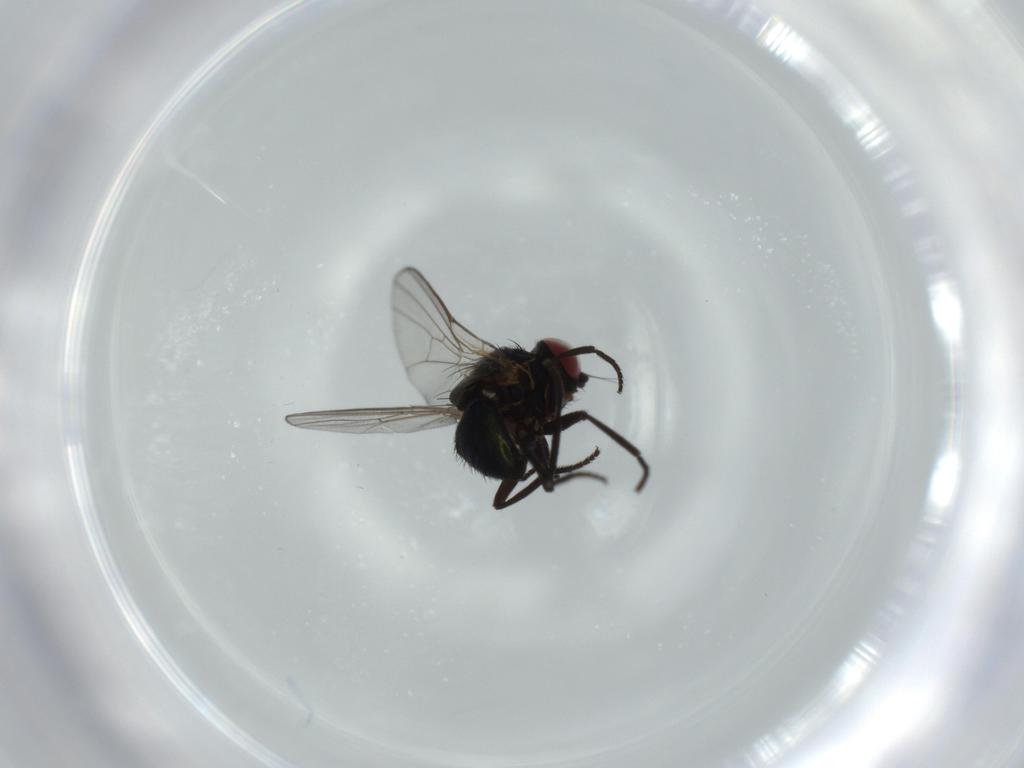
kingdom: Animalia
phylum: Arthropoda
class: Insecta
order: Diptera
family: Agromyzidae
